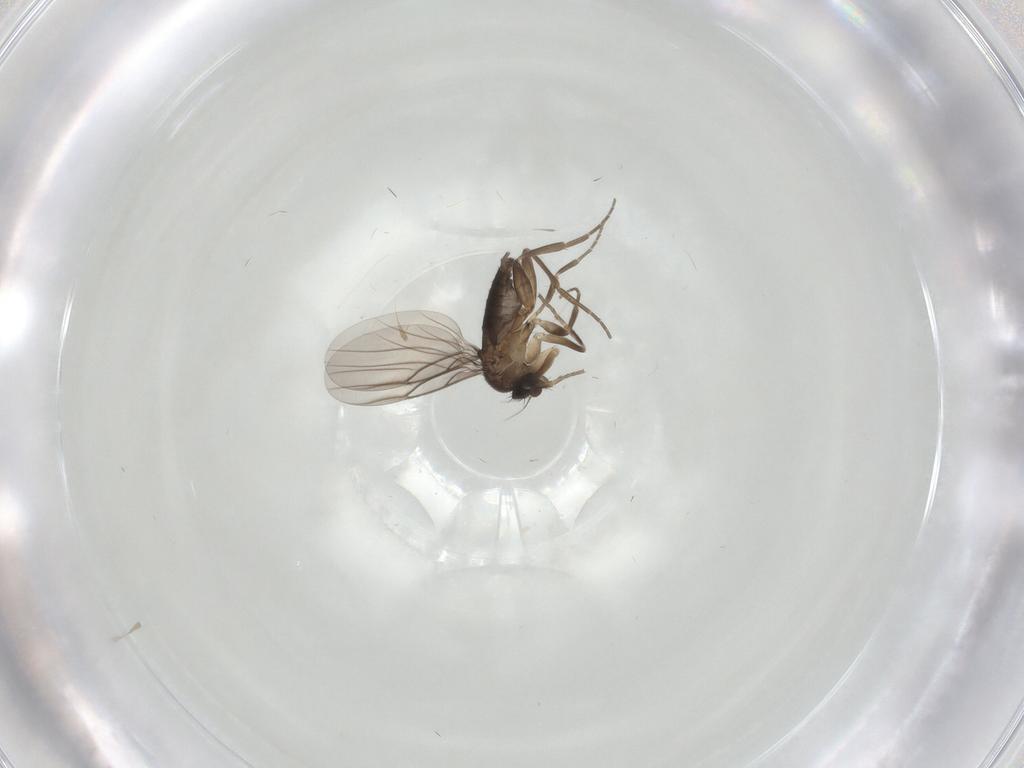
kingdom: Animalia
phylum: Arthropoda
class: Insecta
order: Diptera
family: Phoridae
